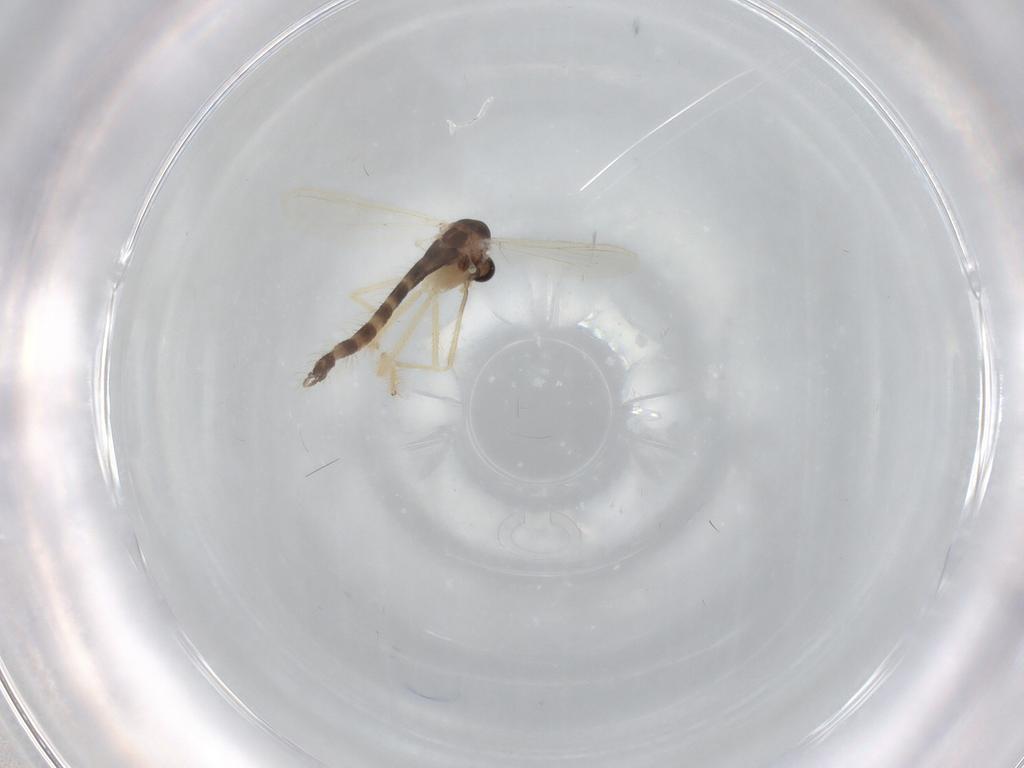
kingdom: Animalia
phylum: Arthropoda
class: Insecta
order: Diptera
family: Chironomidae
